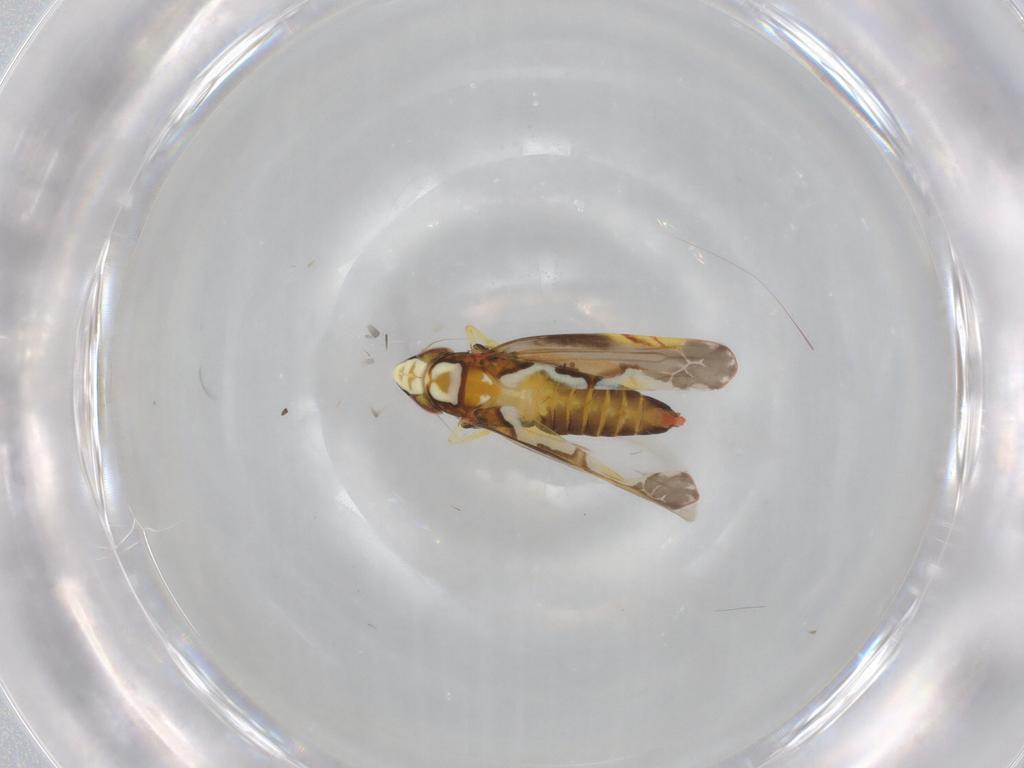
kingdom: Animalia
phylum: Arthropoda
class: Insecta
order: Hemiptera
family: Cicadellidae
